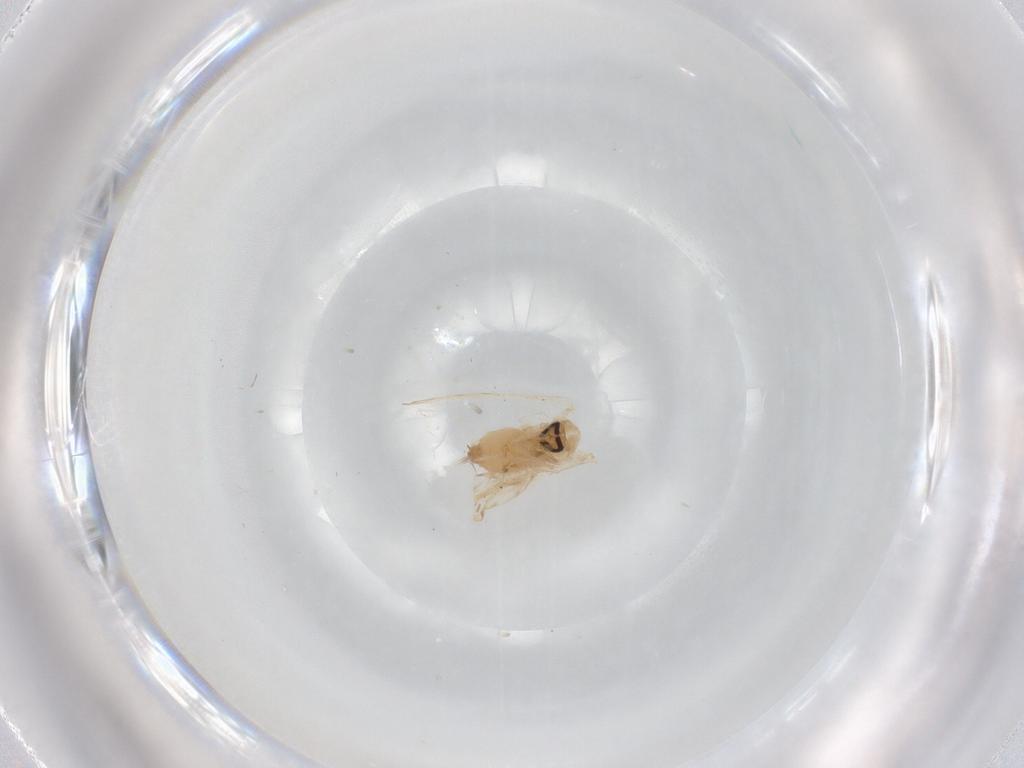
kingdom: Animalia
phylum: Arthropoda
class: Insecta
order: Diptera
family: Psychodidae
